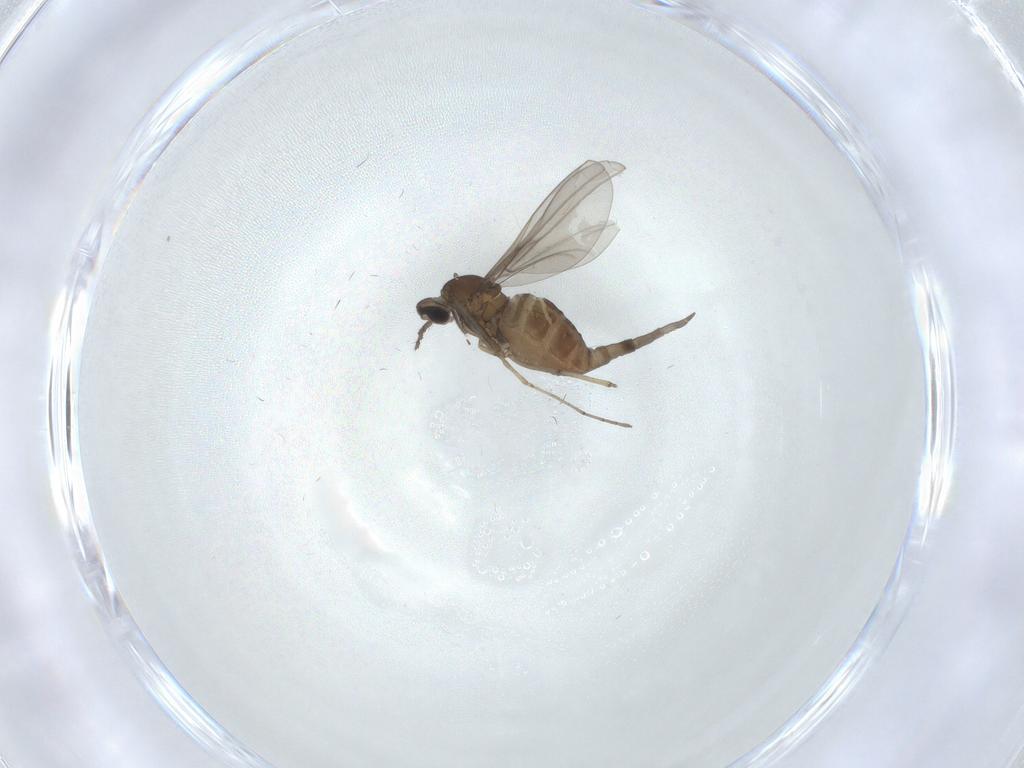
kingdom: Animalia
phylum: Arthropoda
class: Insecta
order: Diptera
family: Cecidomyiidae
